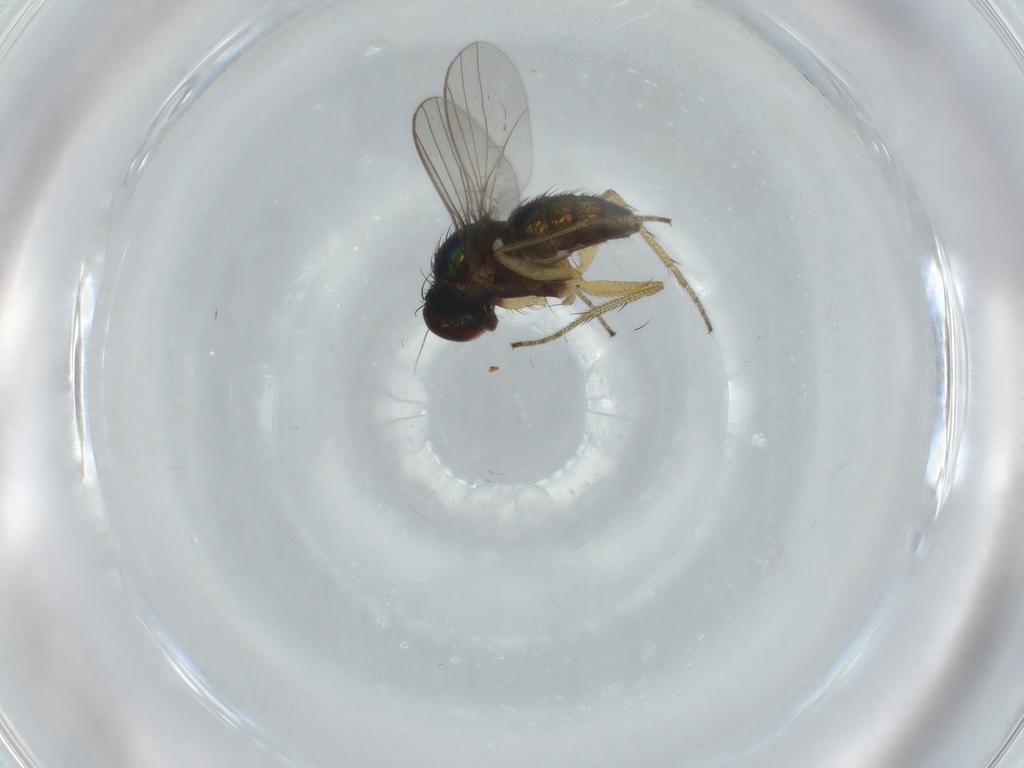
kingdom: Animalia
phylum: Arthropoda
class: Insecta
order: Diptera
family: Dolichopodidae
